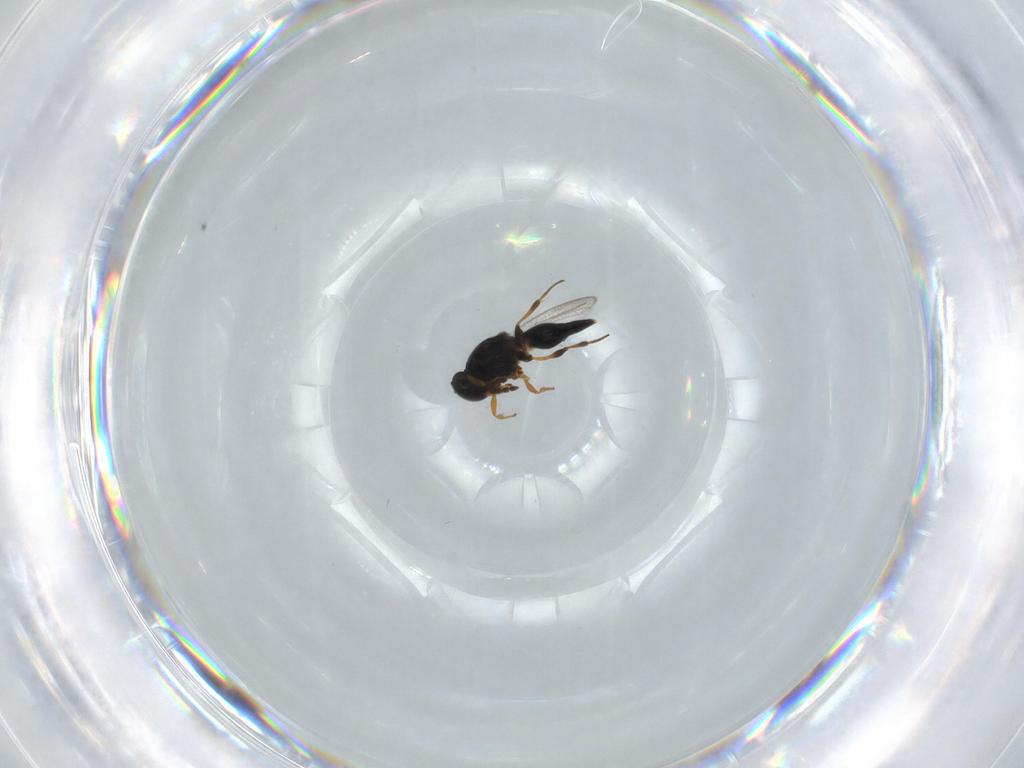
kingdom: Animalia
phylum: Arthropoda
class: Insecta
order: Hymenoptera
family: Platygastridae
